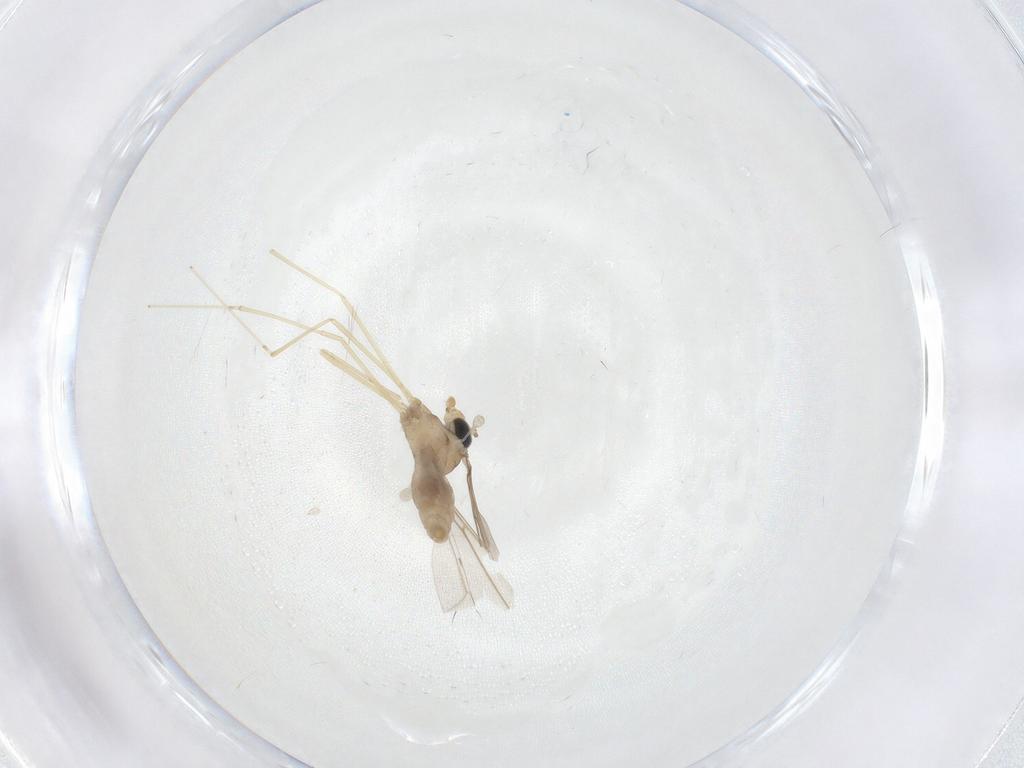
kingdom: Animalia
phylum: Arthropoda
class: Insecta
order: Diptera
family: Cecidomyiidae
